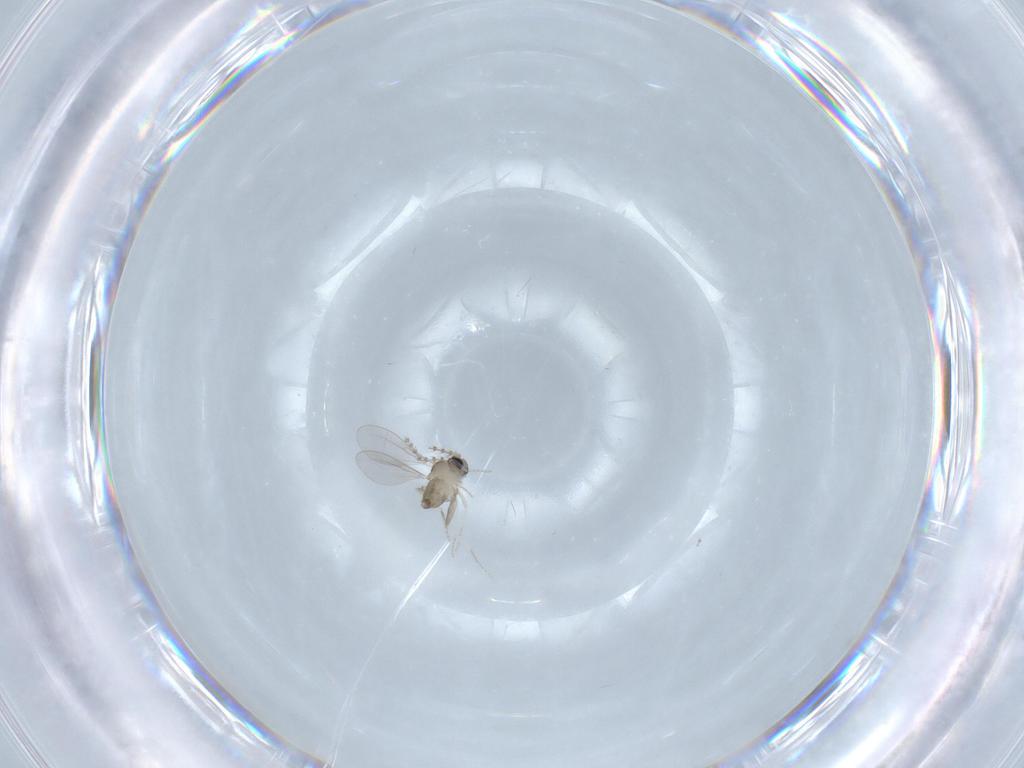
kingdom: Animalia
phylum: Arthropoda
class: Insecta
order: Diptera
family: Cecidomyiidae
